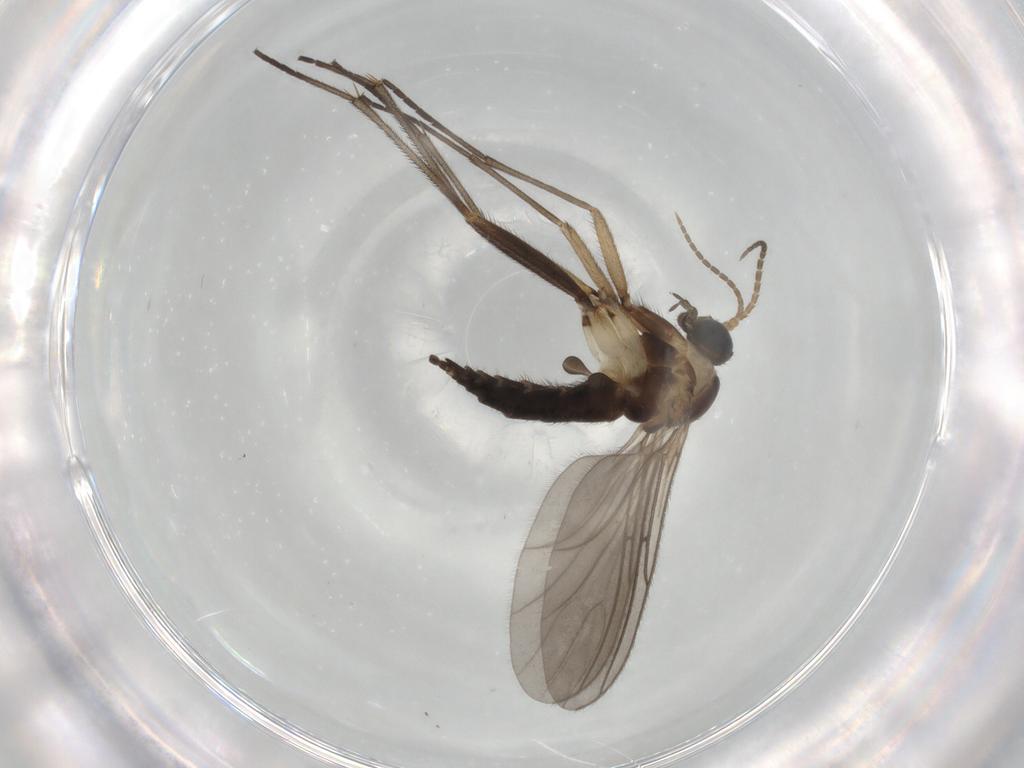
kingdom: Animalia
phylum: Arthropoda
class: Insecta
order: Diptera
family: Sciaridae
